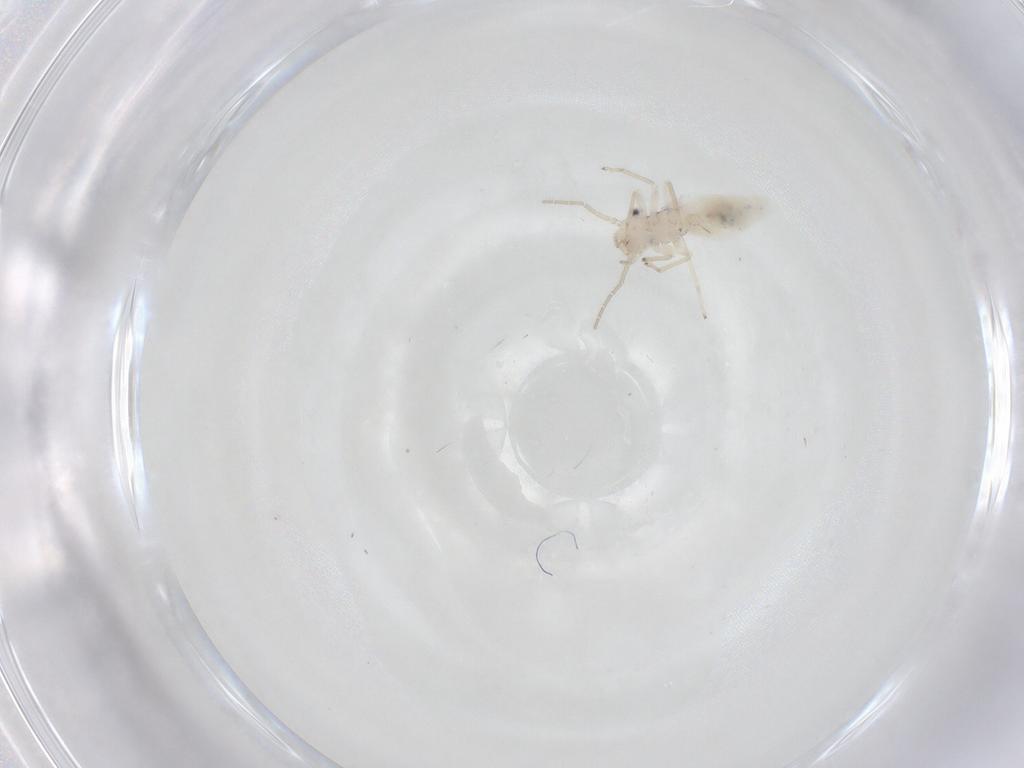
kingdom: Animalia
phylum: Arthropoda
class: Insecta
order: Psocodea
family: Caeciliusidae
